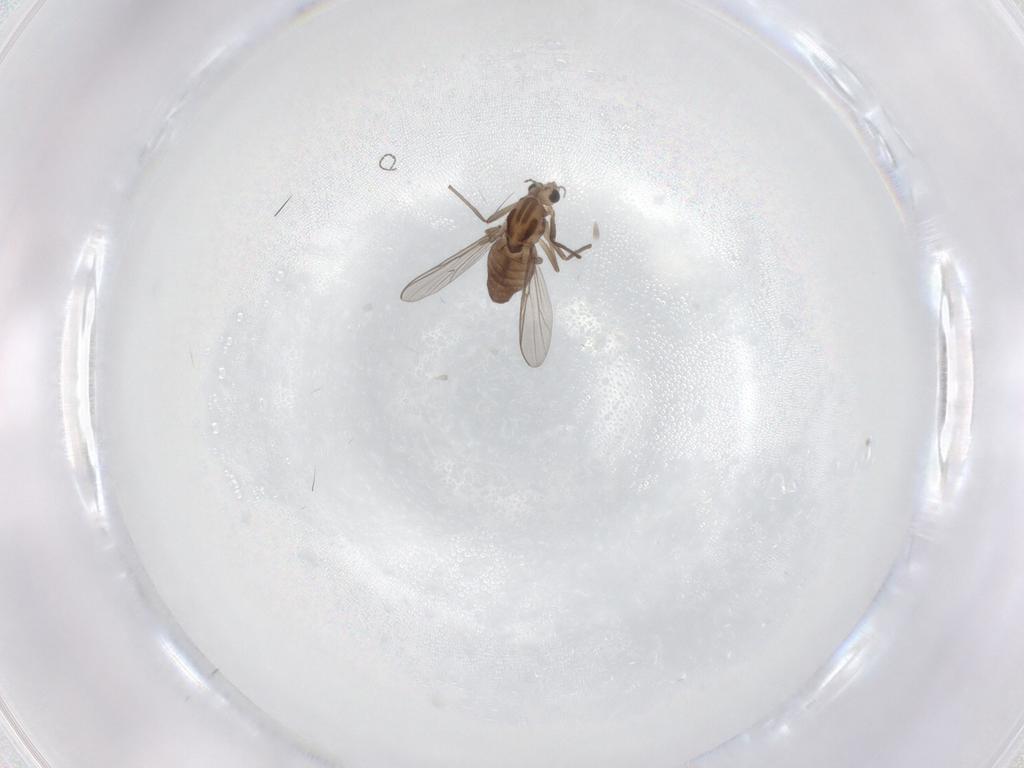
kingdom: Animalia
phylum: Arthropoda
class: Insecta
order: Diptera
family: Chironomidae
